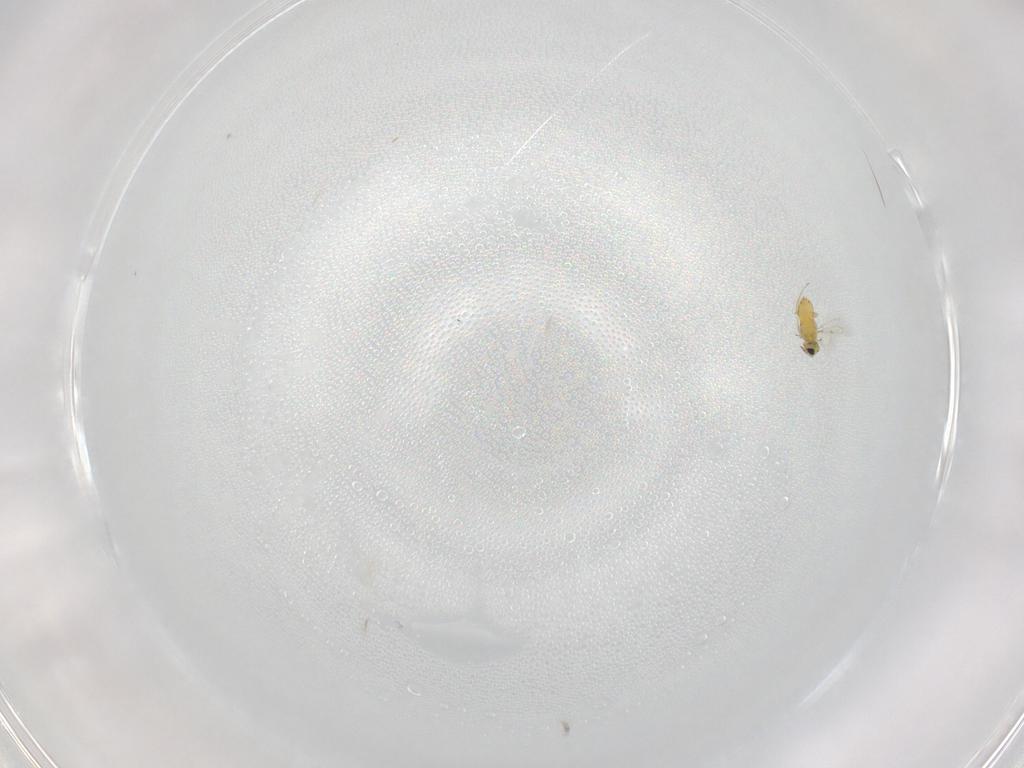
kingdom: Animalia
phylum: Arthropoda
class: Insecta
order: Hymenoptera
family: Trichogrammatidae
